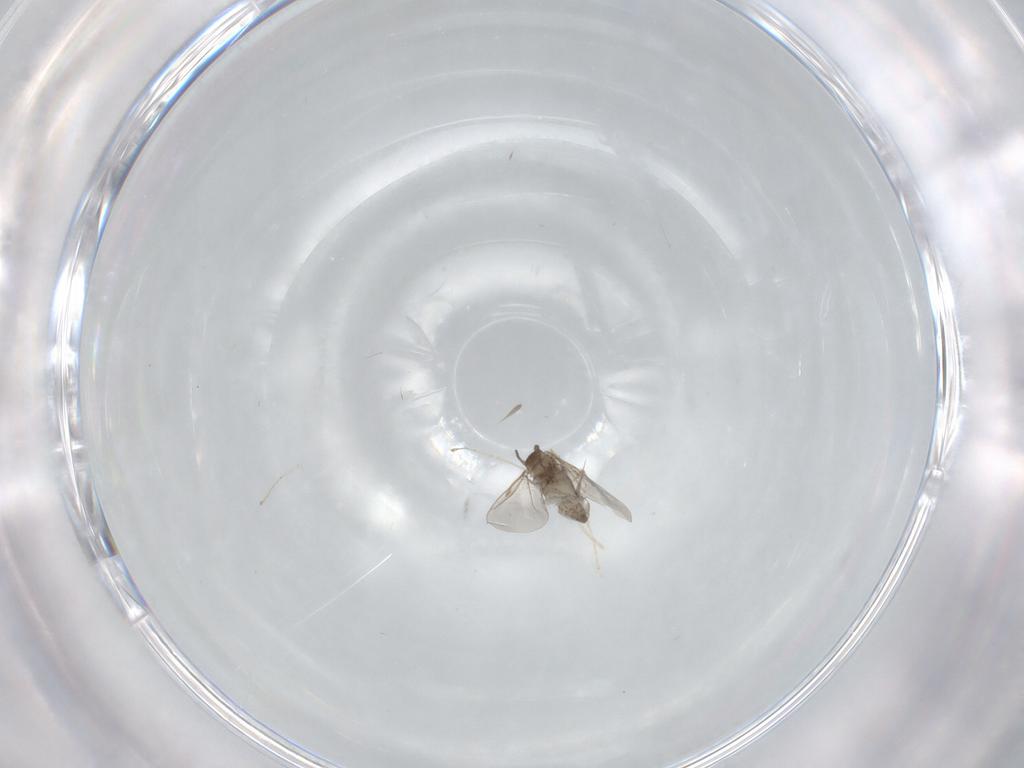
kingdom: Animalia
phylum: Arthropoda
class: Insecta
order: Diptera
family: Cecidomyiidae
